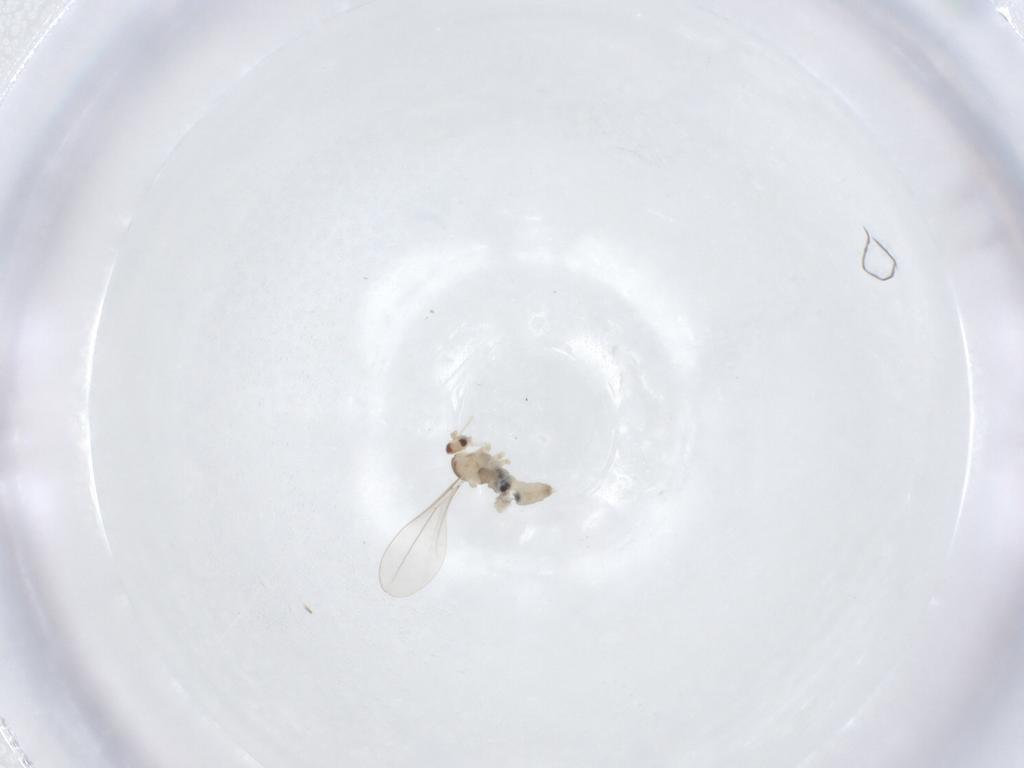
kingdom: Animalia
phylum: Arthropoda
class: Insecta
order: Diptera
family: Cecidomyiidae
